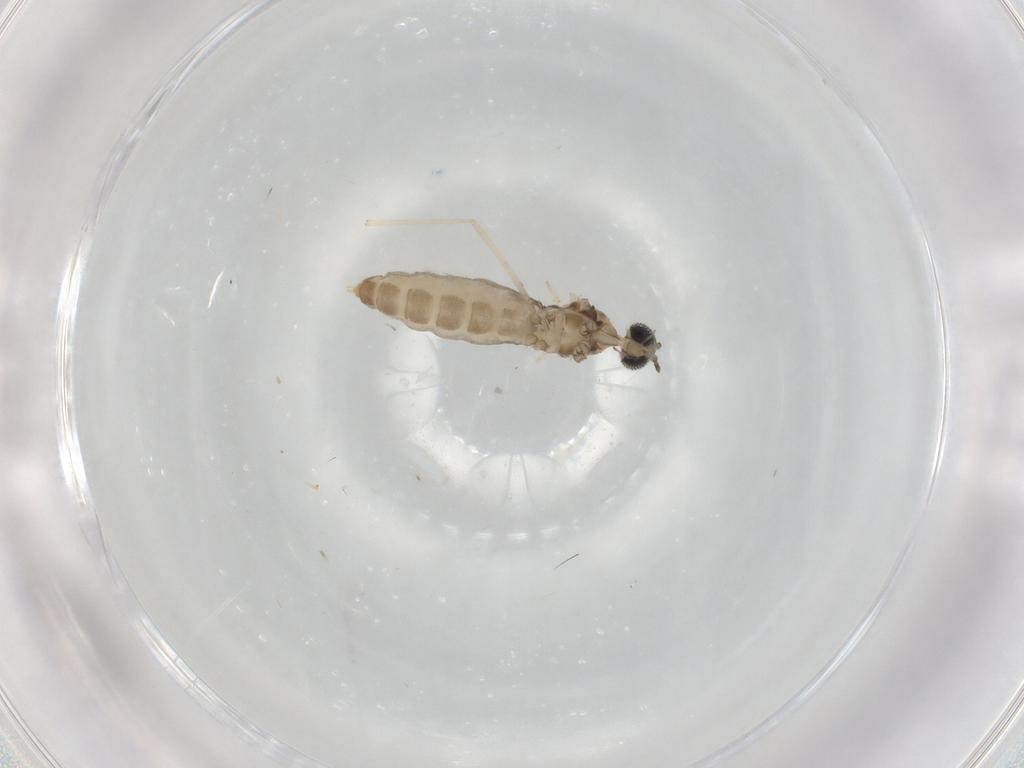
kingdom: Animalia
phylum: Arthropoda
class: Insecta
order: Diptera
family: Cecidomyiidae
